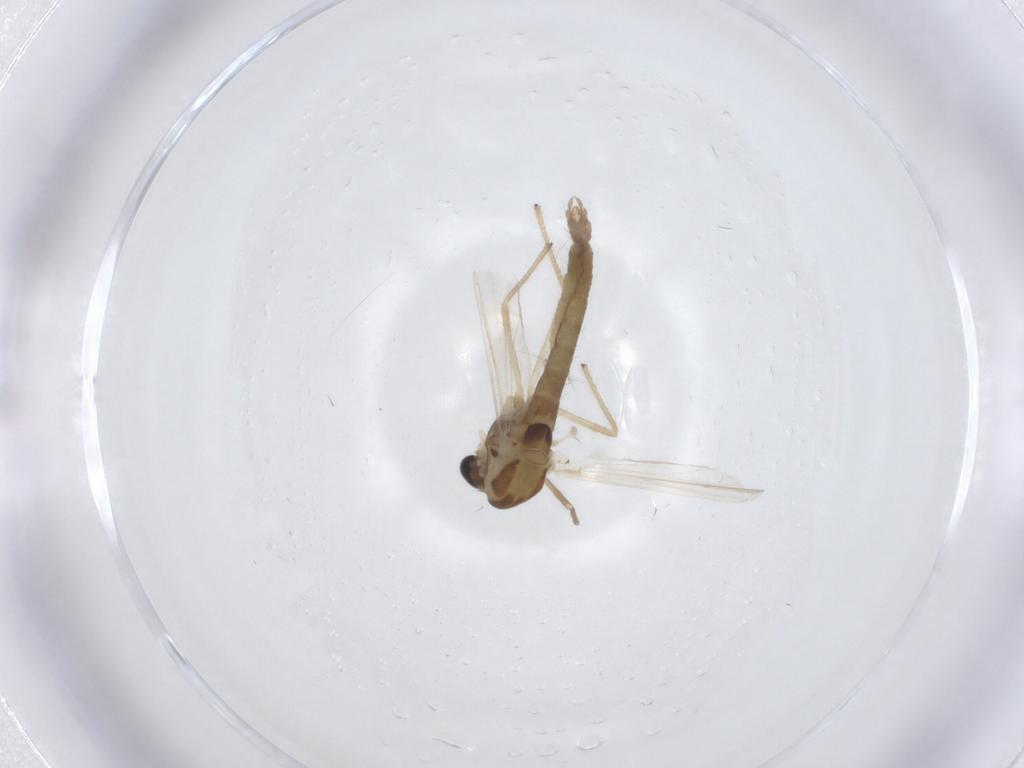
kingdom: Animalia
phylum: Arthropoda
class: Insecta
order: Diptera
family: Chironomidae
